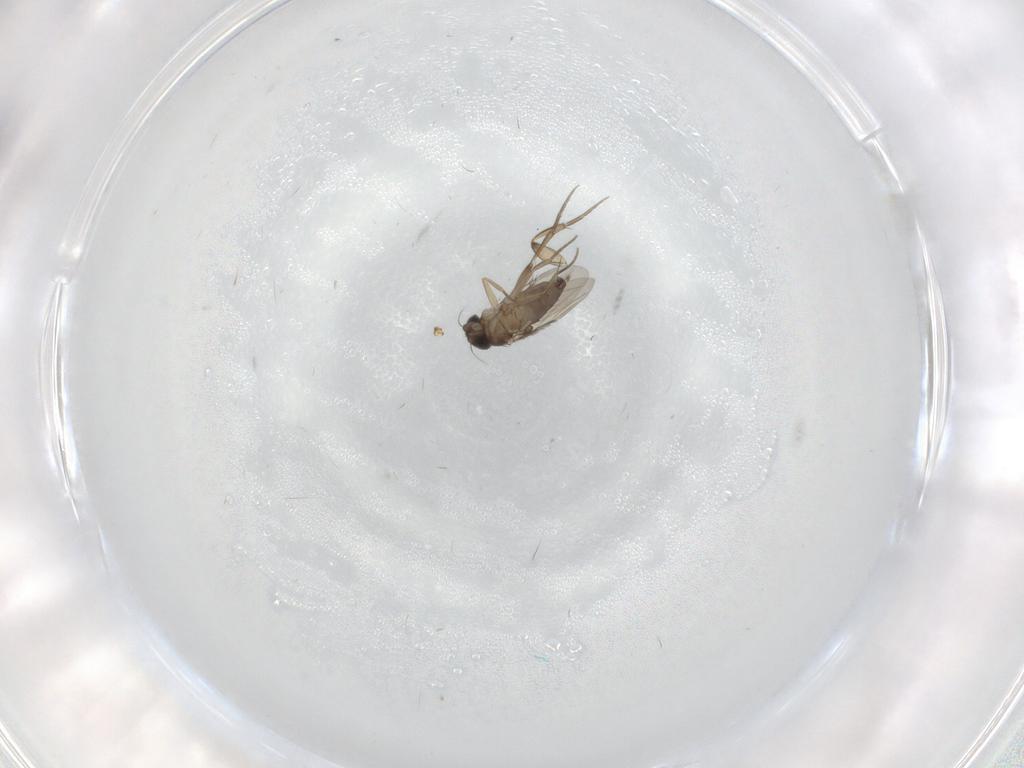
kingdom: Animalia
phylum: Arthropoda
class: Insecta
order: Diptera
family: Phoridae
